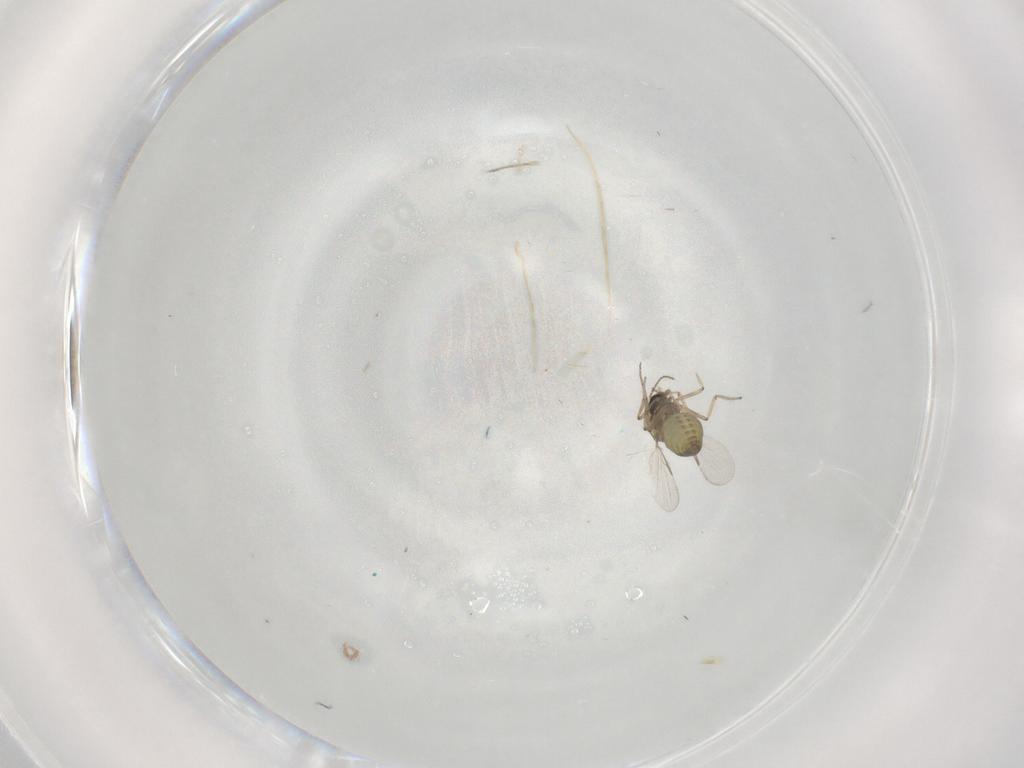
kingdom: Animalia
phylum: Arthropoda
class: Insecta
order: Diptera
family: Ceratopogonidae
